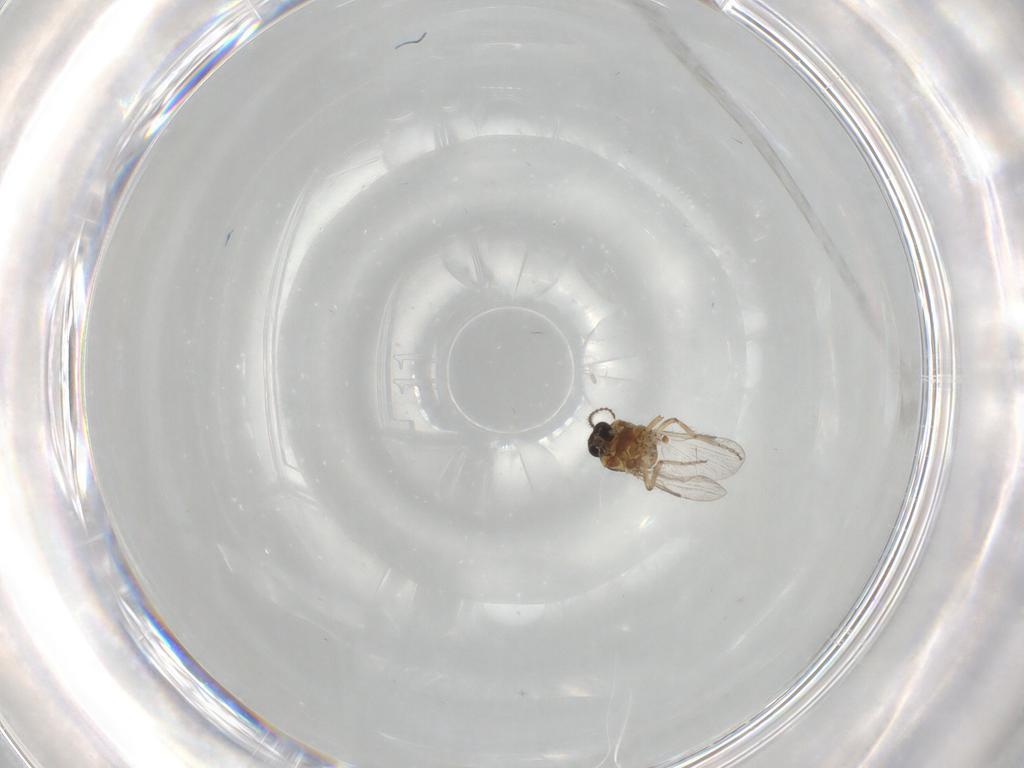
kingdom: Animalia
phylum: Arthropoda
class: Insecta
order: Diptera
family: Ceratopogonidae
